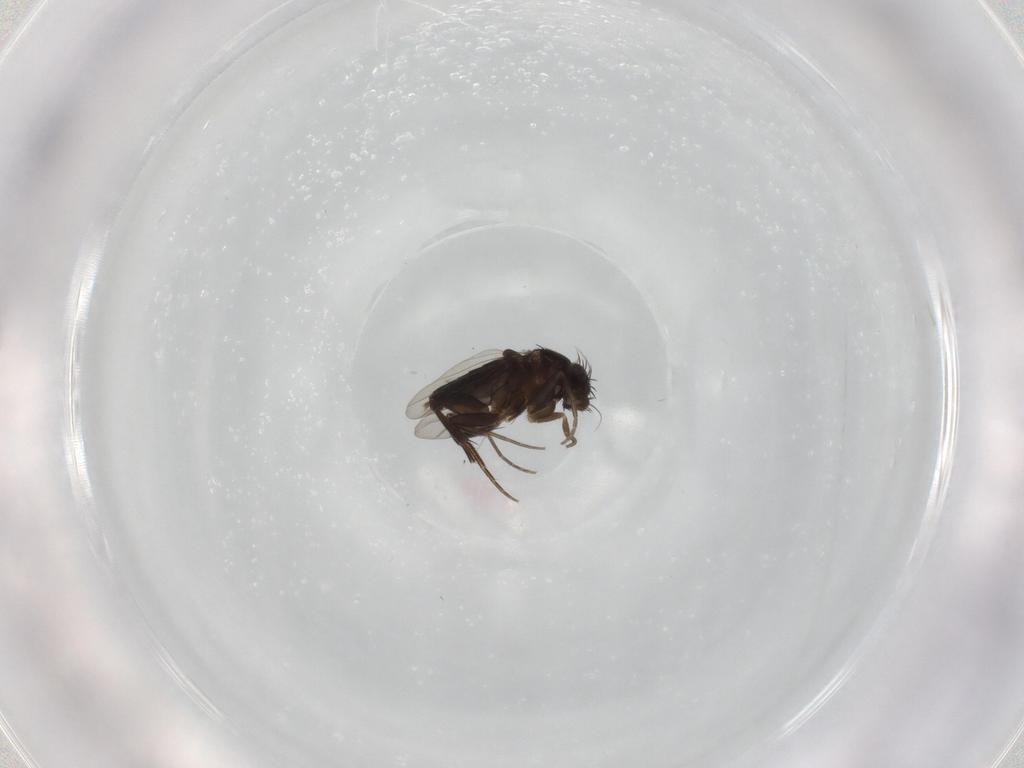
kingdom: Animalia
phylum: Arthropoda
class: Insecta
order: Diptera
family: Phoridae
